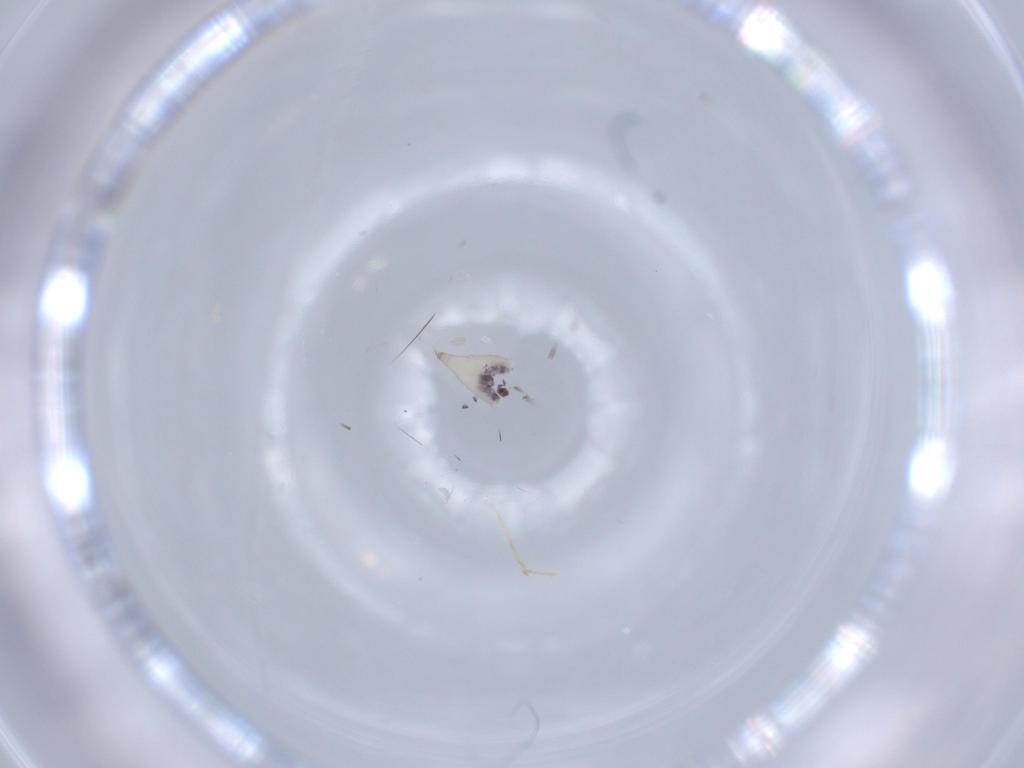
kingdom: Animalia
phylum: Arthropoda
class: Insecta
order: Diptera
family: Cecidomyiidae
